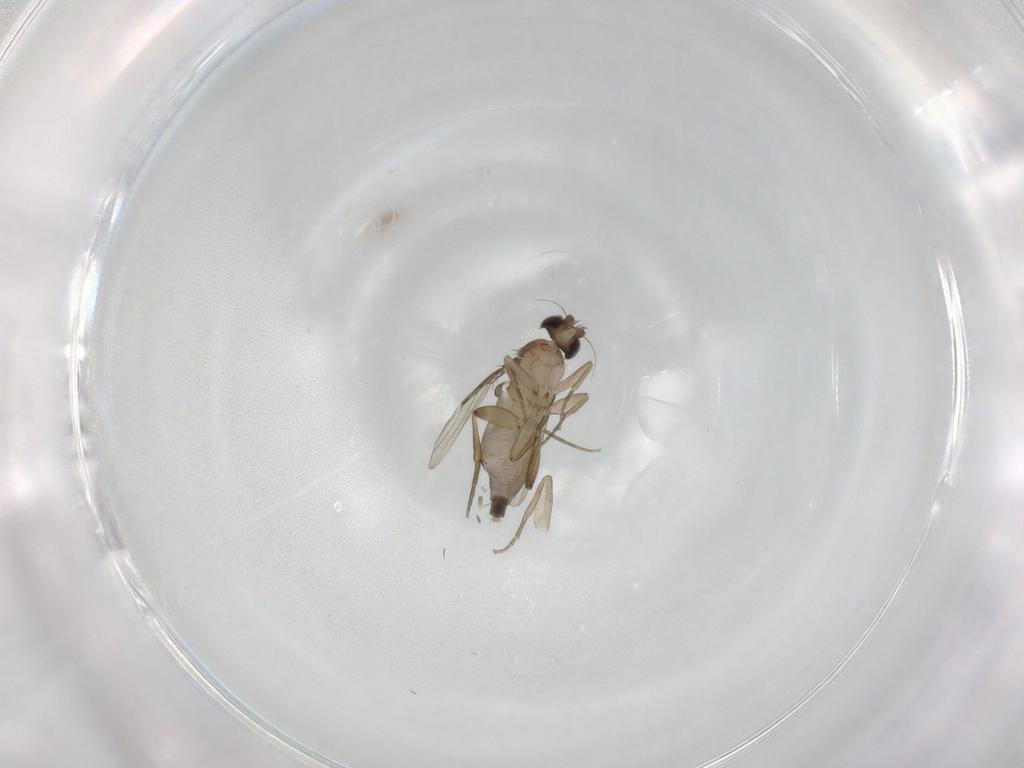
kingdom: Animalia
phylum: Arthropoda
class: Insecta
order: Diptera
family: Phoridae
